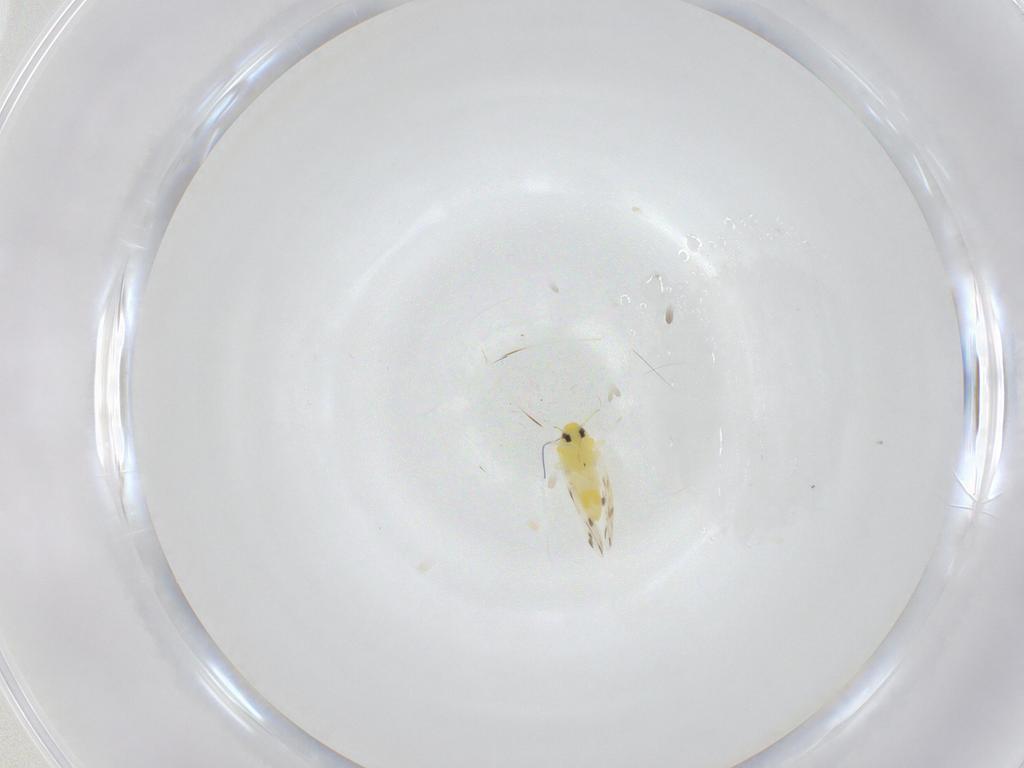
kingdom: Animalia
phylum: Arthropoda
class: Insecta
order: Hemiptera
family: Aleyrodidae
